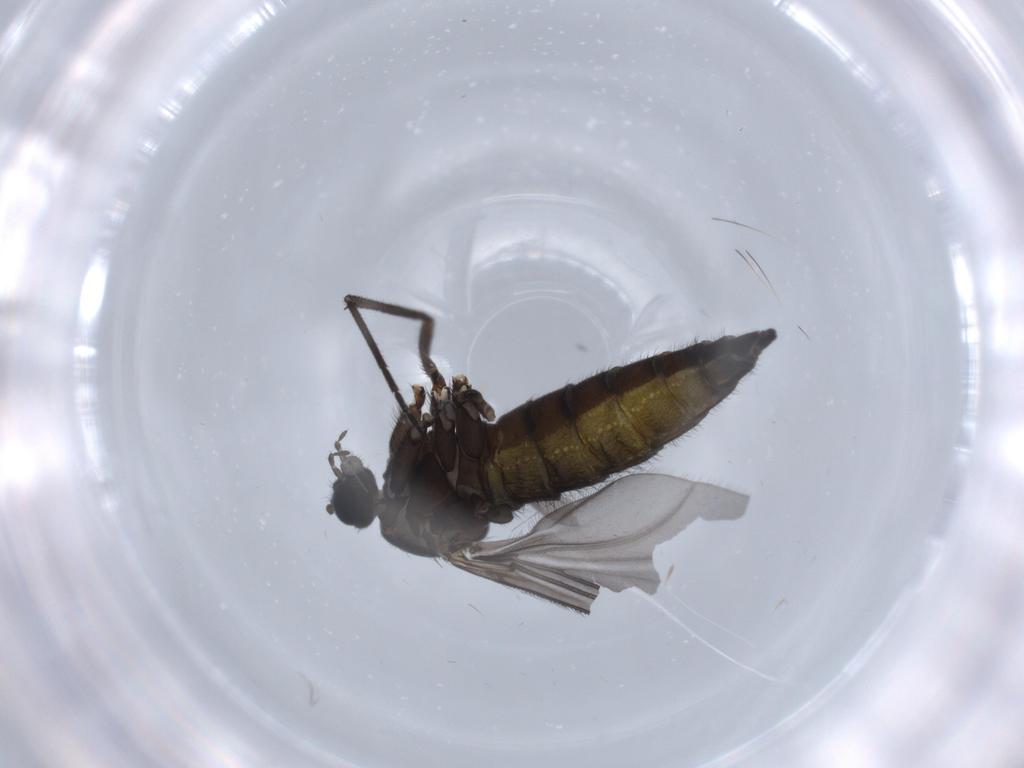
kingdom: Animalia
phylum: Arthropoda
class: Insecta
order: Diptera
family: Sciaridae
